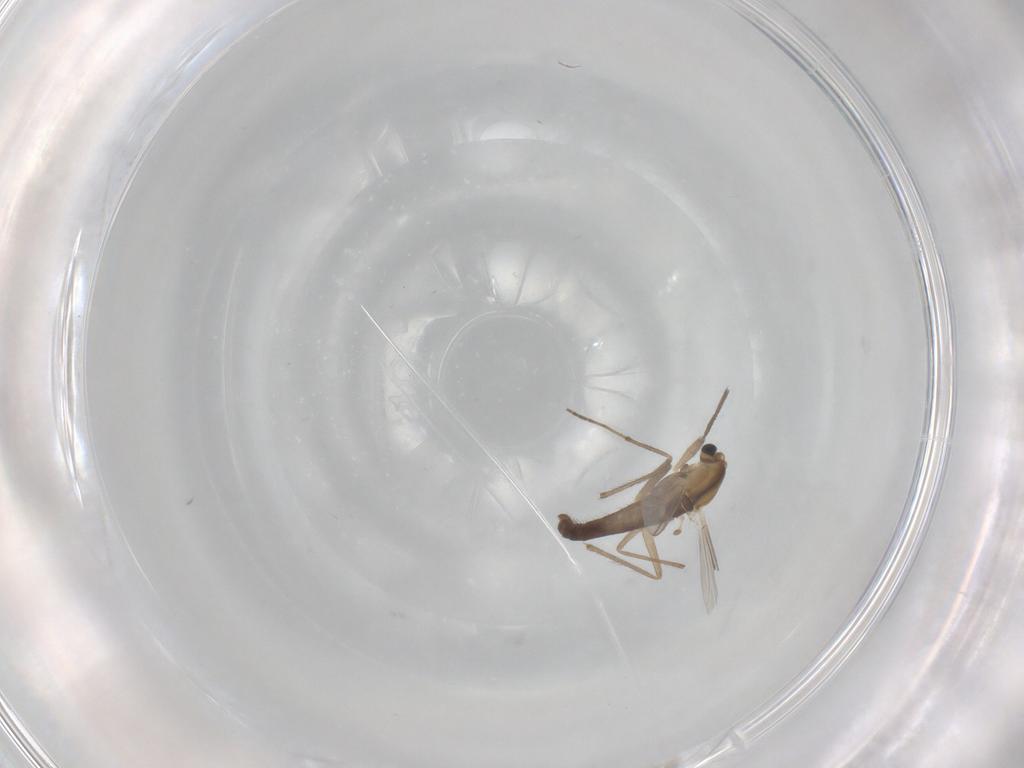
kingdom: Animalia
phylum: Arthropoda
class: Insecta
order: Diptera
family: Chironomidae
